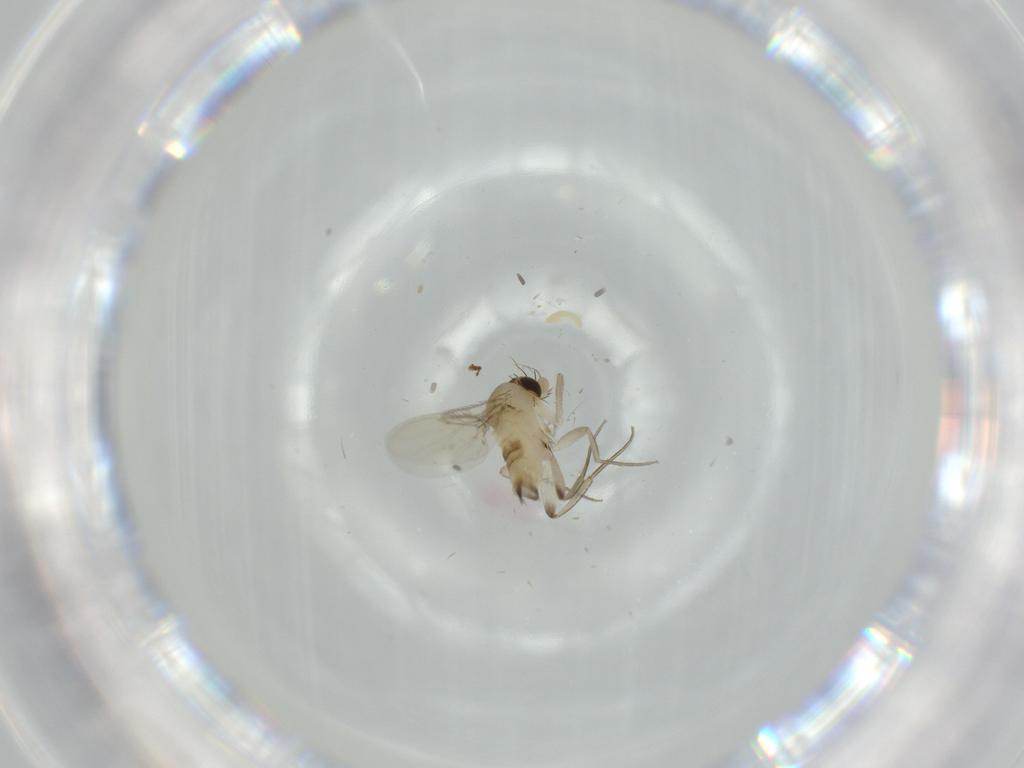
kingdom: Animalia
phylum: Arthropoda
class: Insecta
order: Diptera
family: Phoridae
